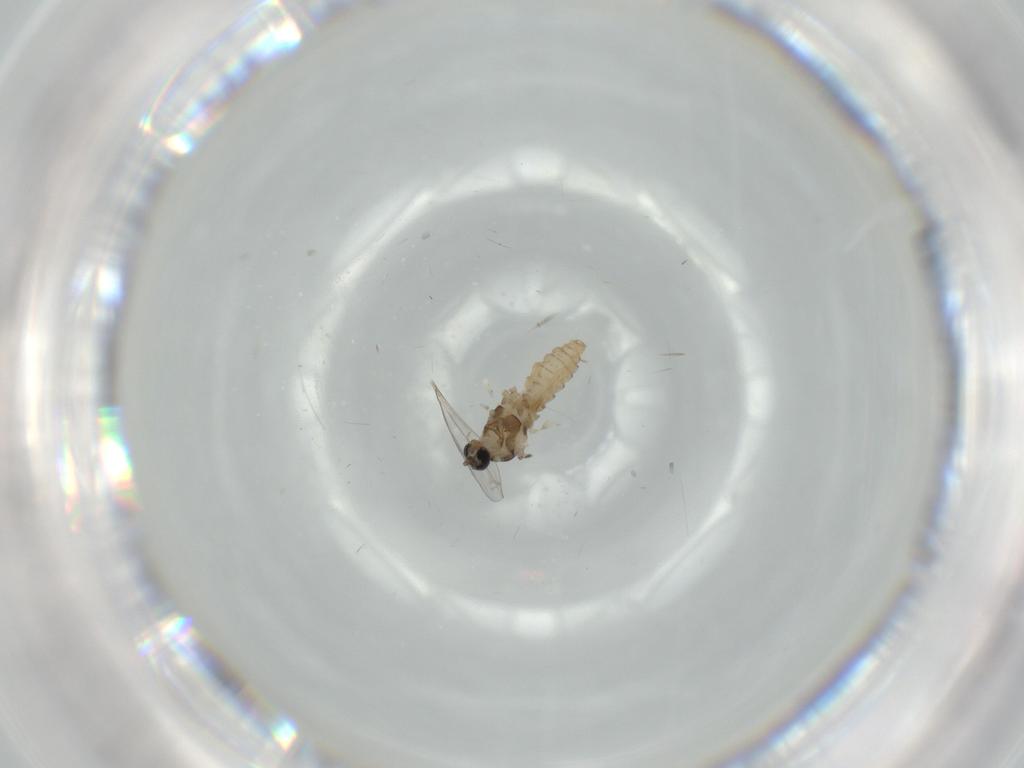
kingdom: Animalia
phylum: Arthropoda
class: Insecta
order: Diptera
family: Cecidomyiidae
